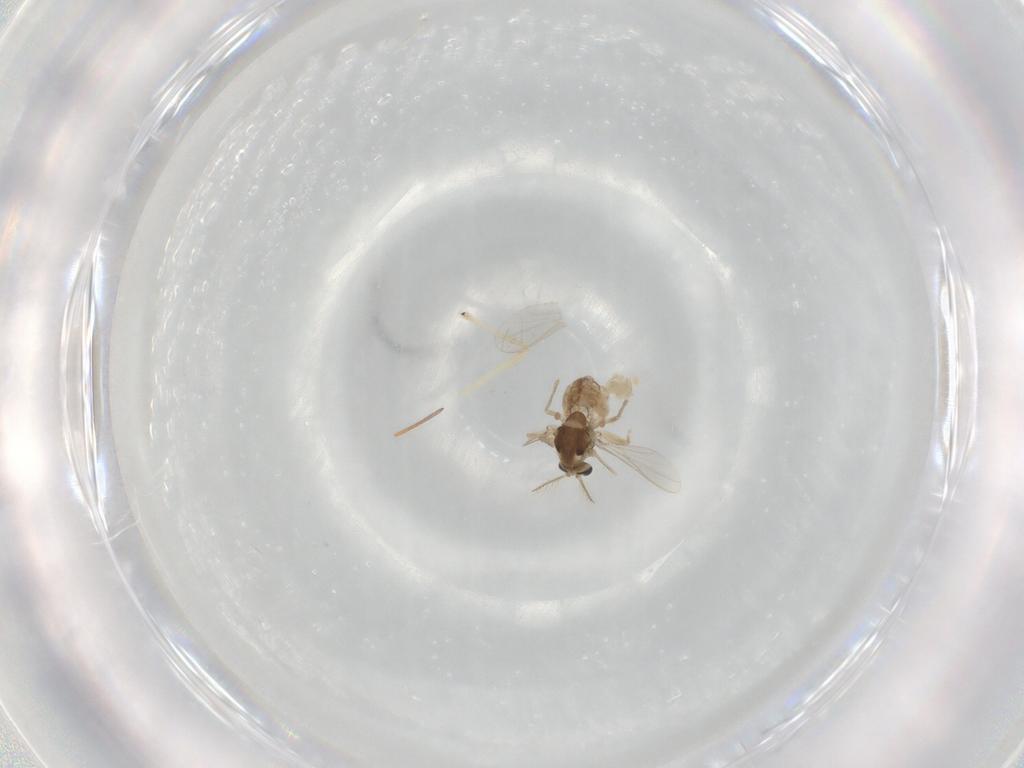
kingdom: Animalia
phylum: Arthropoda
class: Insecta
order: Diptera
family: Chironomidae
